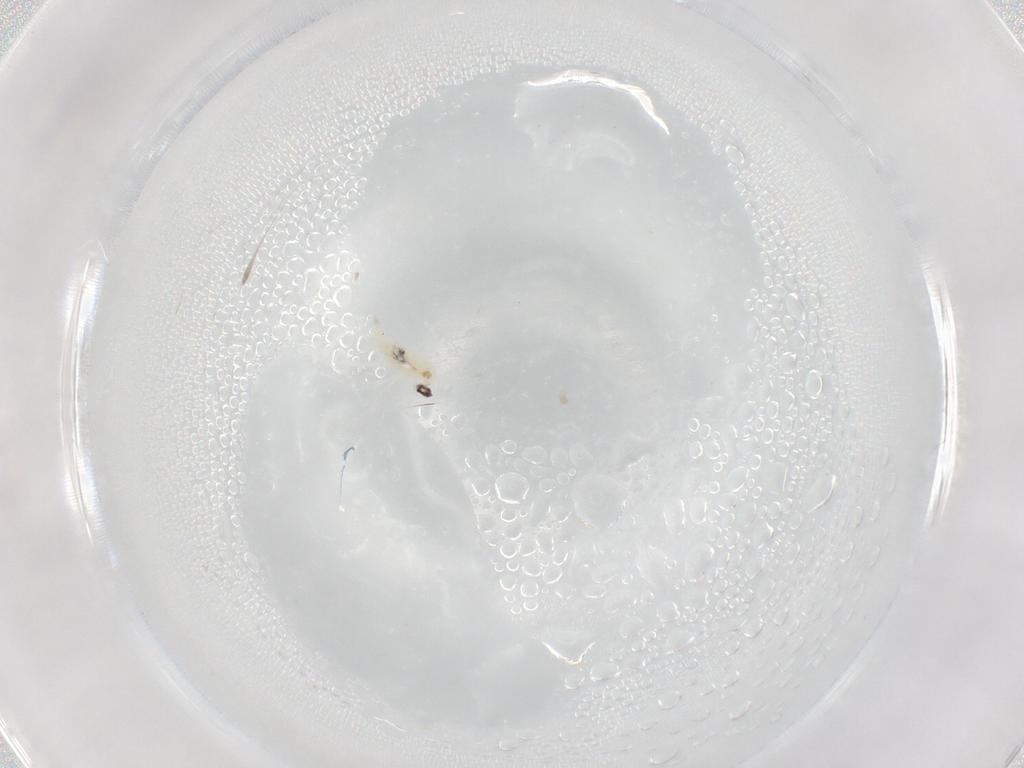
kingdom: Animalia
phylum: Arthropoda
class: Insecta
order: Diptera
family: Cecidomyiidae
